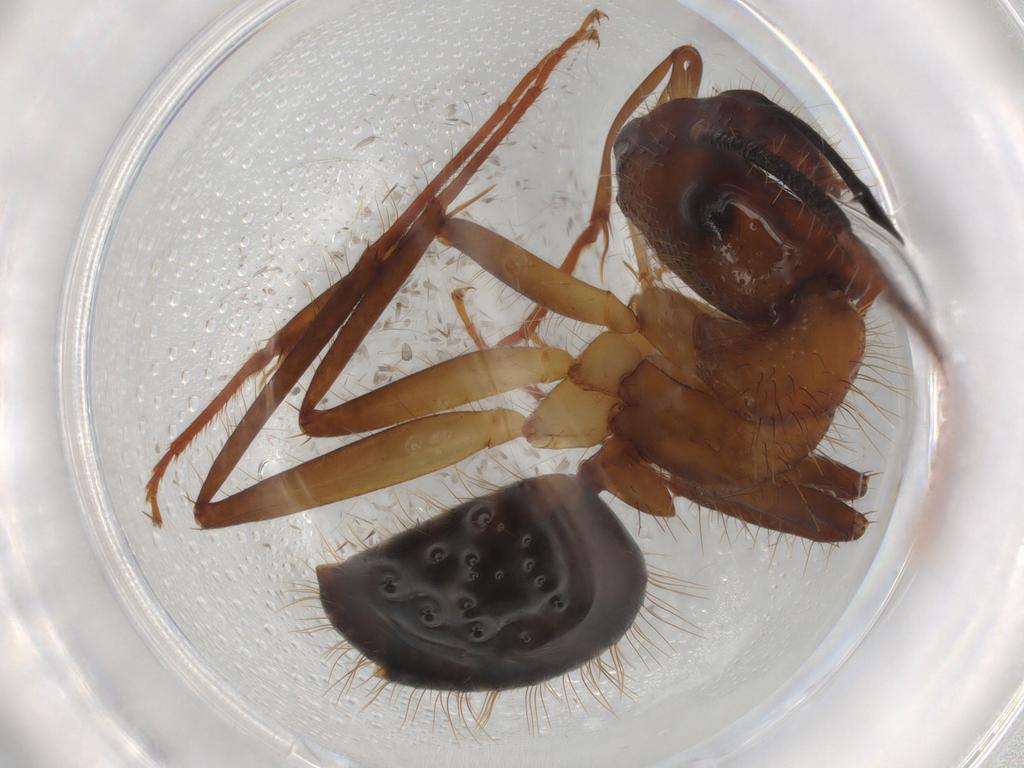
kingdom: Animalia
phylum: Arthropoda
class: Insecta
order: Hymenoptera
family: Formicidae
